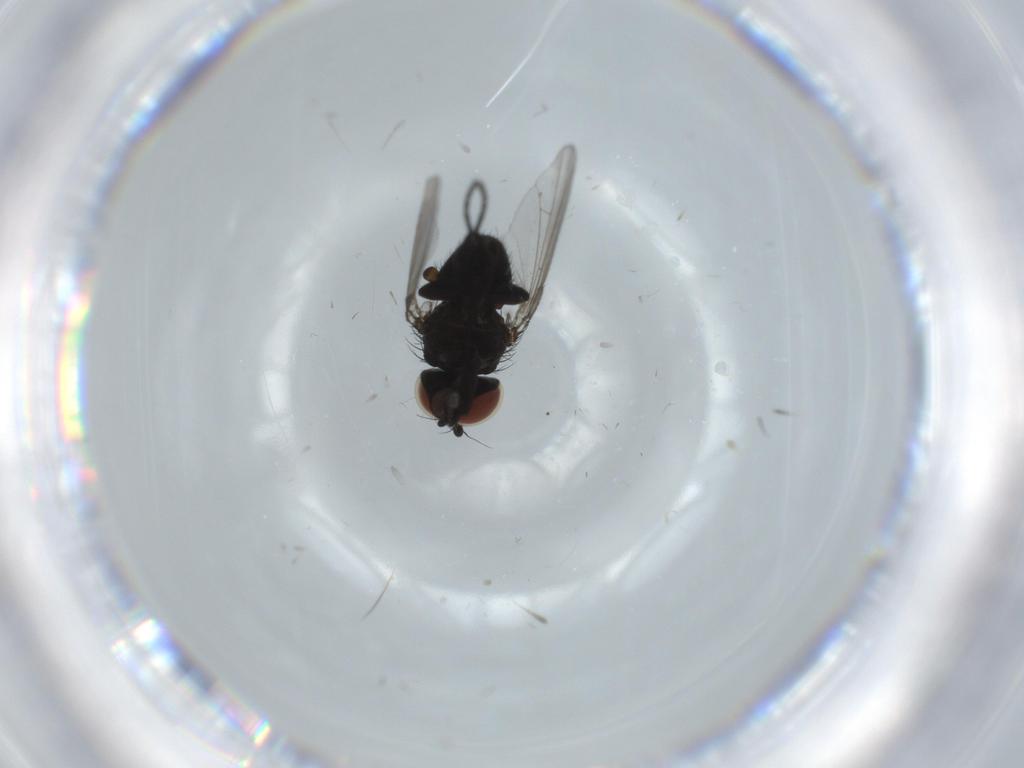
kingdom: Animalia
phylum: Arthropoda
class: Insecta
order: Diptera
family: Milichiidae
